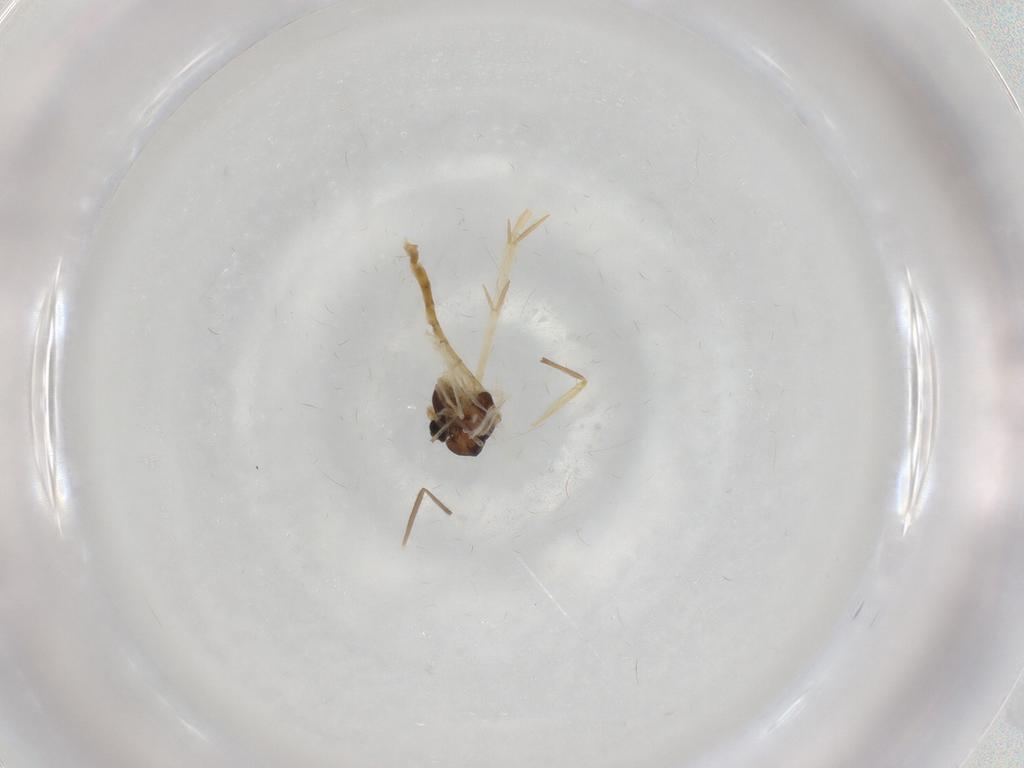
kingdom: Animalia
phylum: Arthropoda
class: Insecta
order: Diptera
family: Chironomidae
